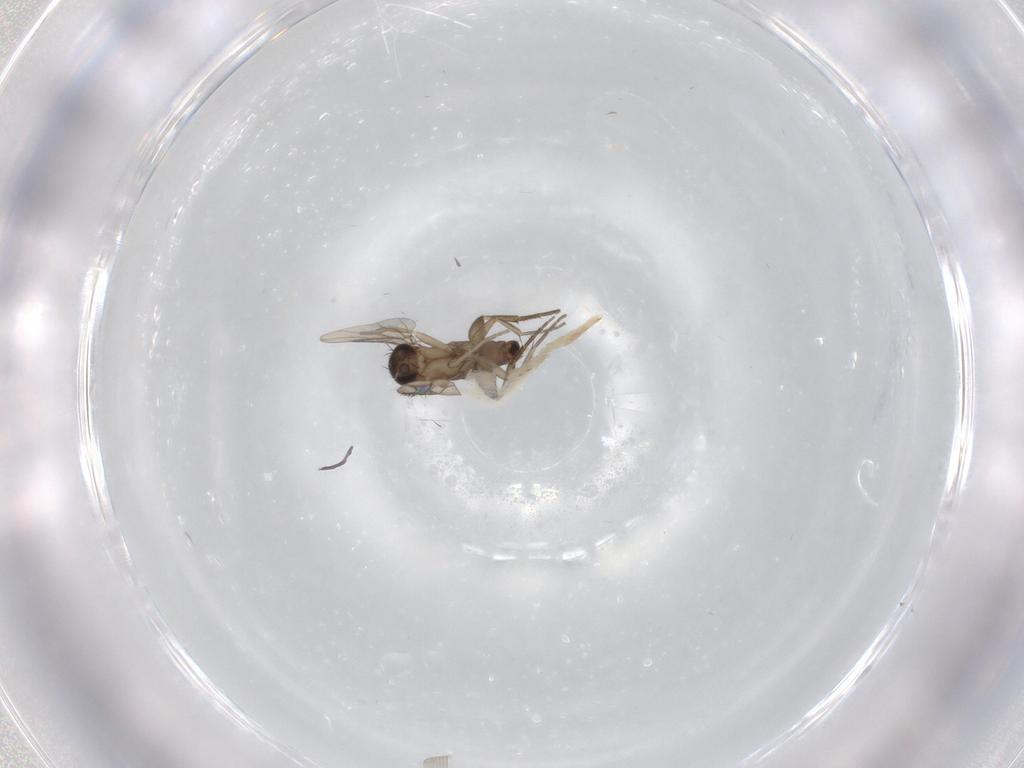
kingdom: Animalia
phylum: Arthropoda
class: Insecta
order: Diptera
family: Phoridae
